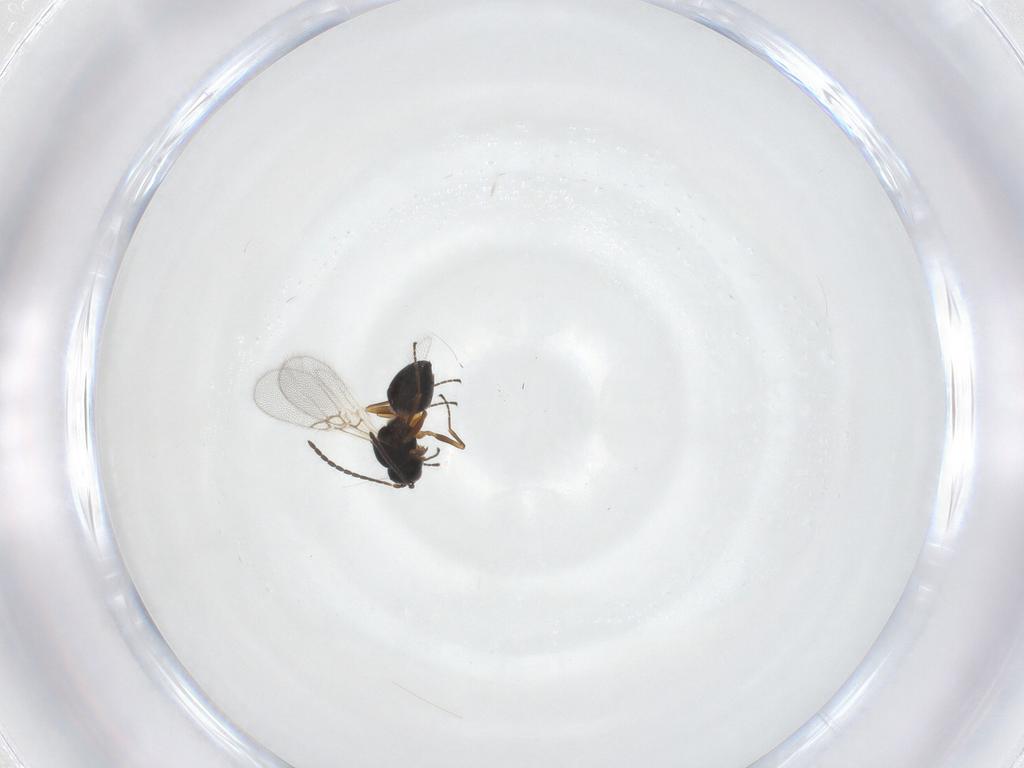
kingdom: Animalia
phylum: Arthropoda
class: Insecta
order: Hymenoptera
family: Figitidae
